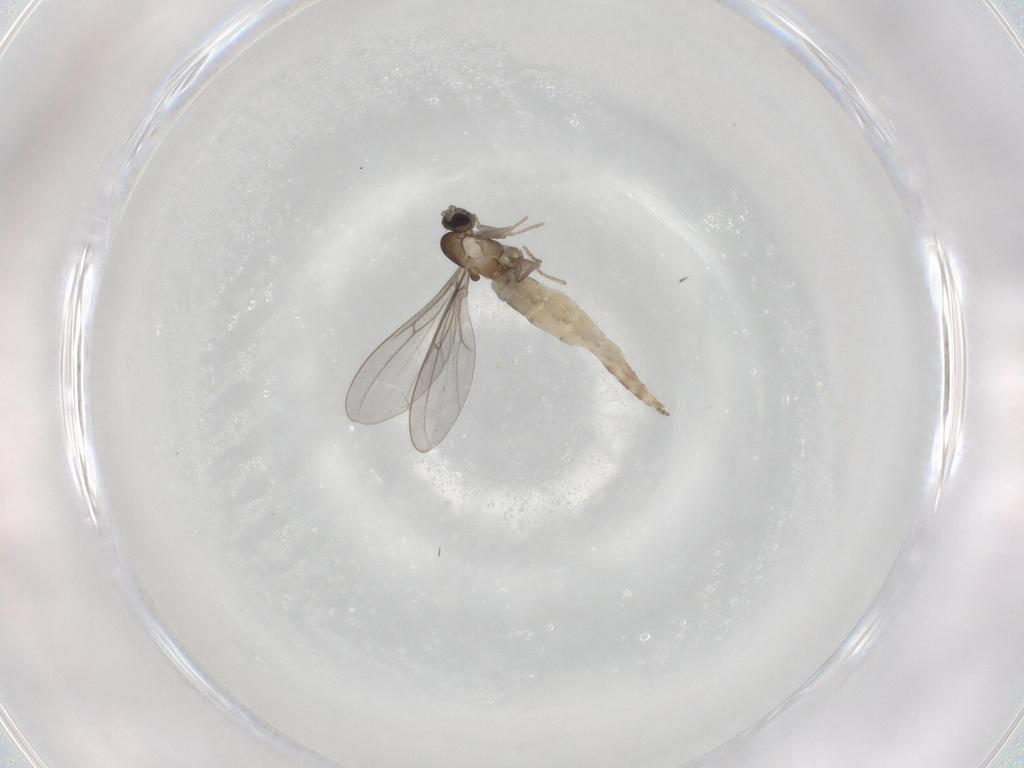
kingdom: Animalia
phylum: Arthropoda
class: Insecta
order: Diptera
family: Cecidomyiidae
